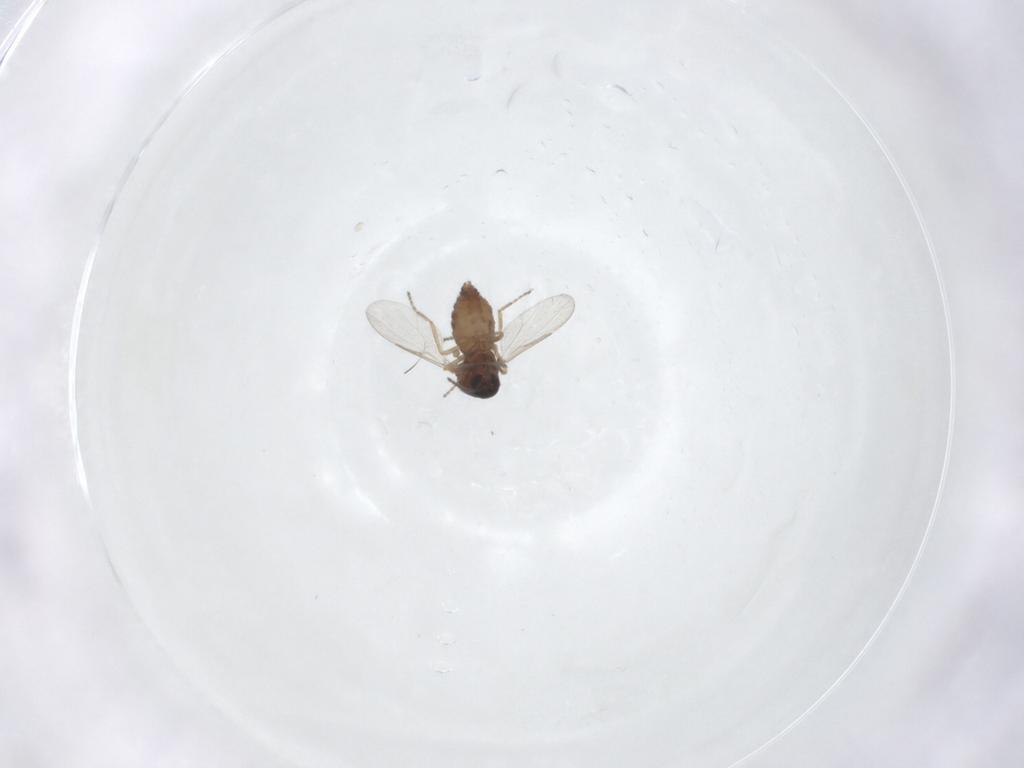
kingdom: Animalia
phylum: Arthropoda
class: Insecta
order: Diptera
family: Ceratopogonidae
